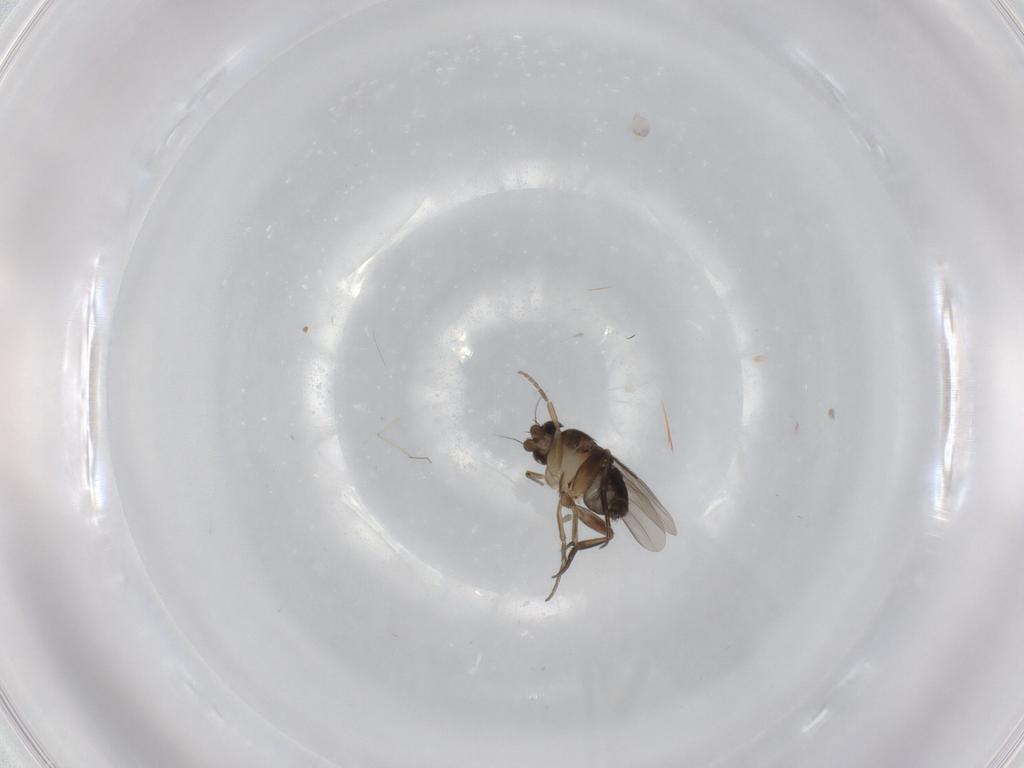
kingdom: Animalia
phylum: Arthropoda
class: Insecta
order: Diptera
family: Phoridae
